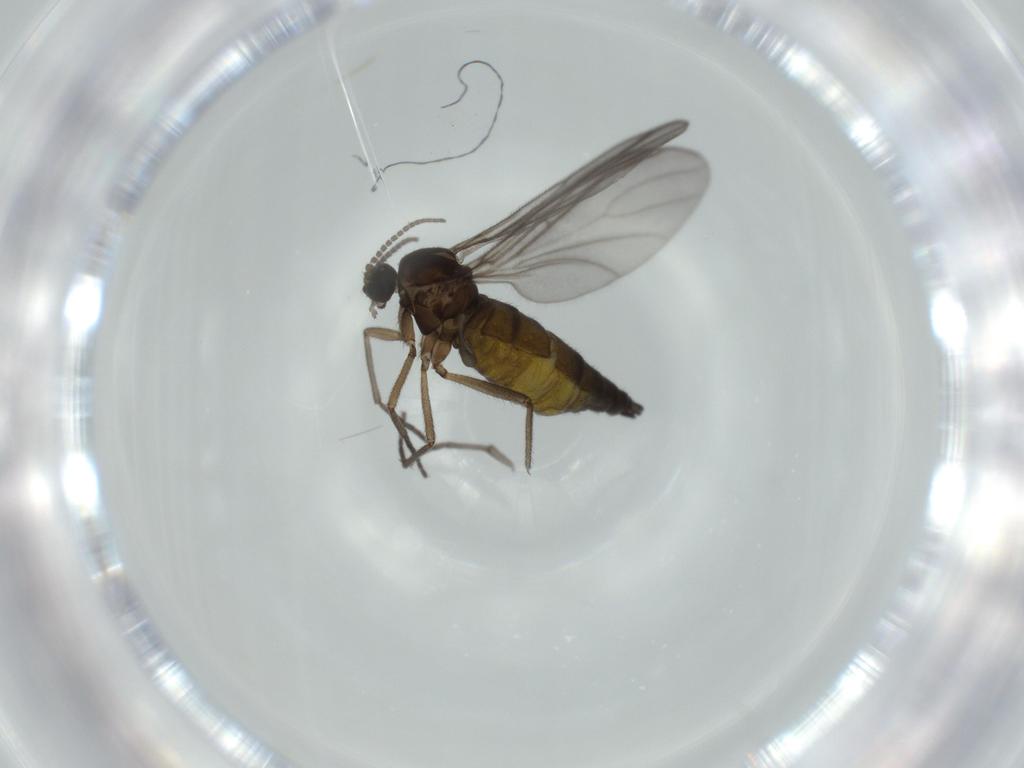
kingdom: Animalia
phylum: Arthropoda
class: Insecta
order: Diptera
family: Sciaridae
